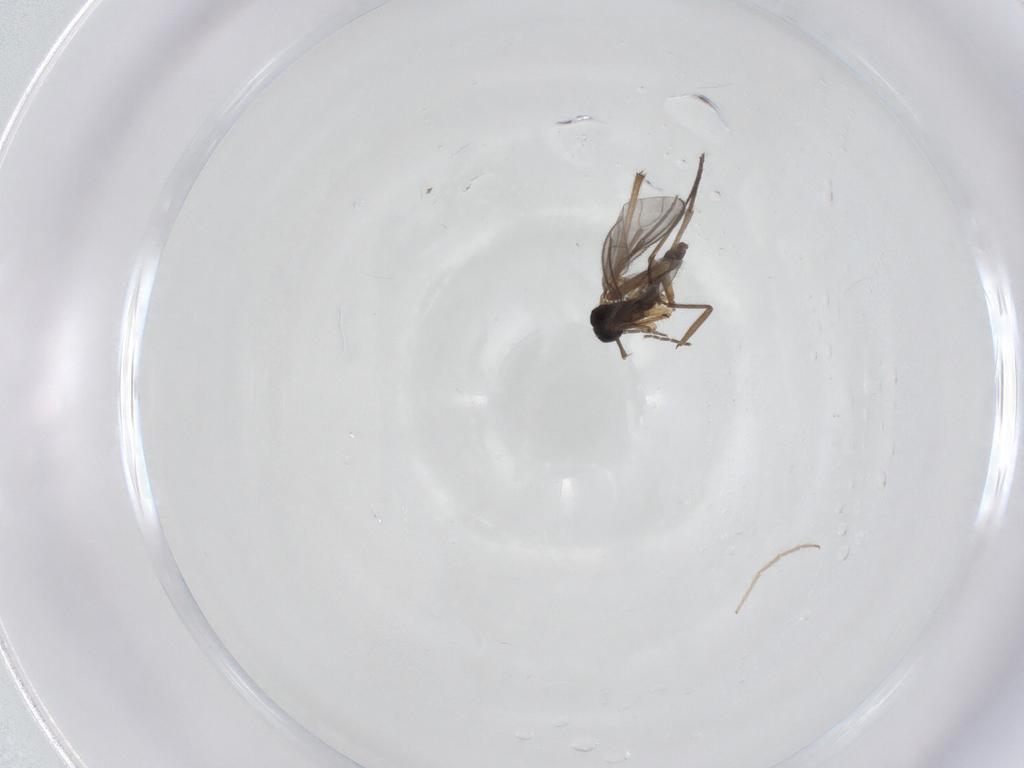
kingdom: Animalia
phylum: Arthropoda
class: Insecta
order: Diptera
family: Sciaridae
